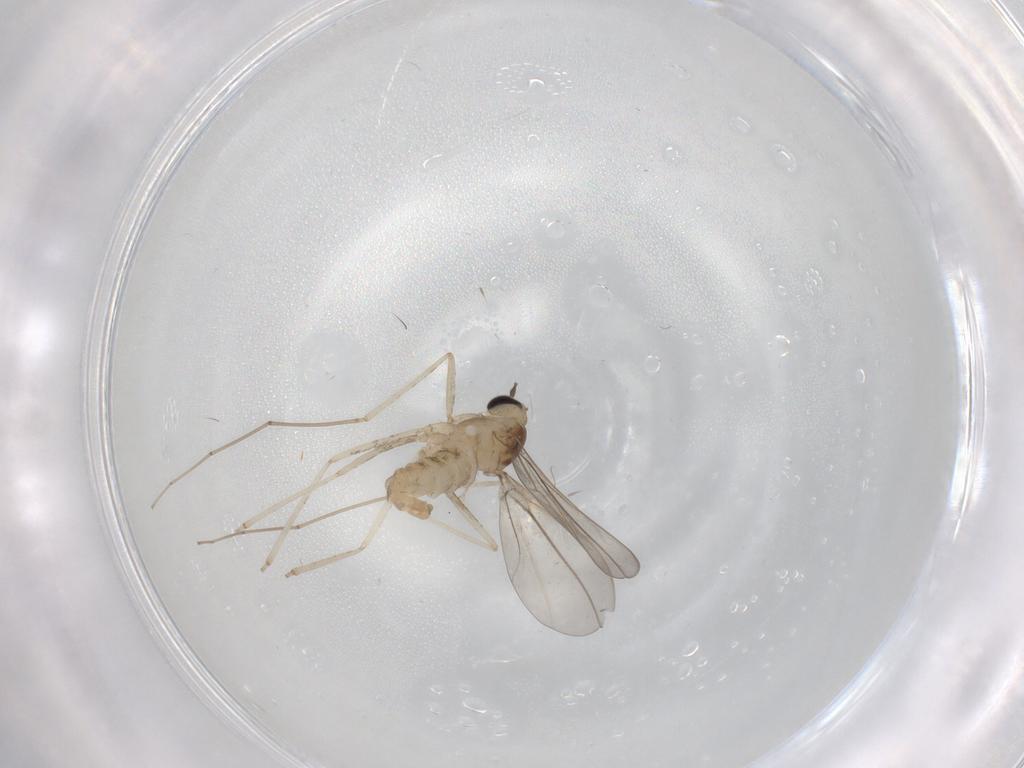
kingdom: Animalia
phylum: Arthropoda
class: Insecta
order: Diptera
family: Cecidomyiidae
